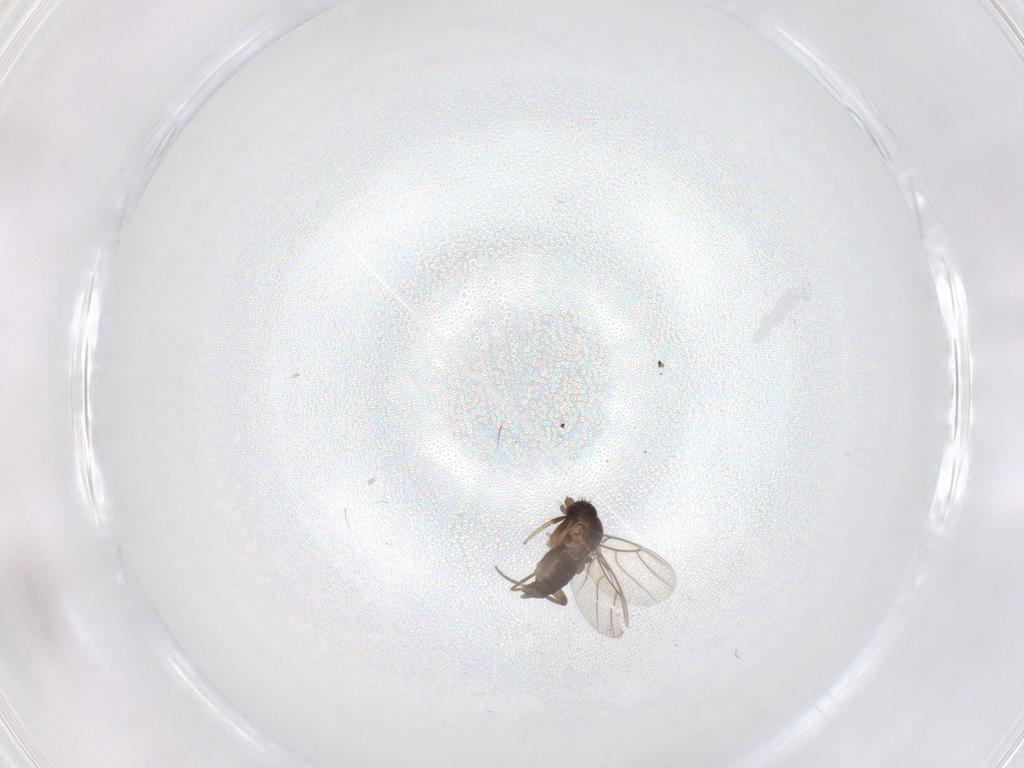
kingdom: Animalia
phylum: Arthropoda
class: Insecta
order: Diptera
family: Phoridae
